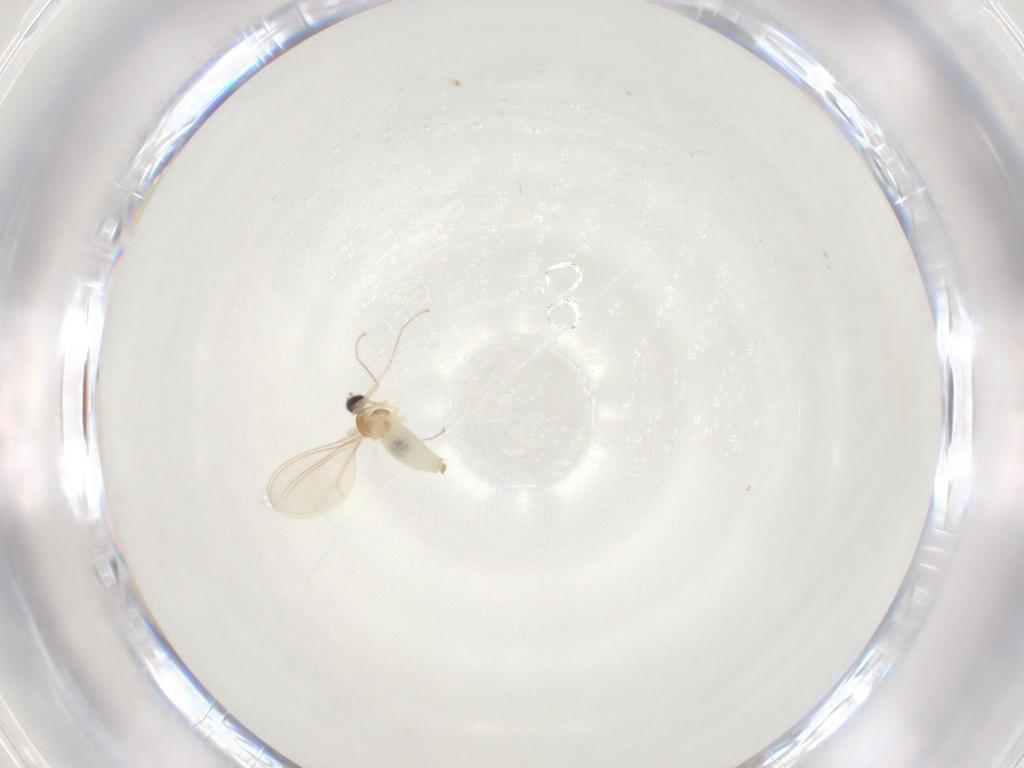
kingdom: Animalia
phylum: Arthropoda
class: Insecta
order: Diptera
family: Cecidomyiidae
